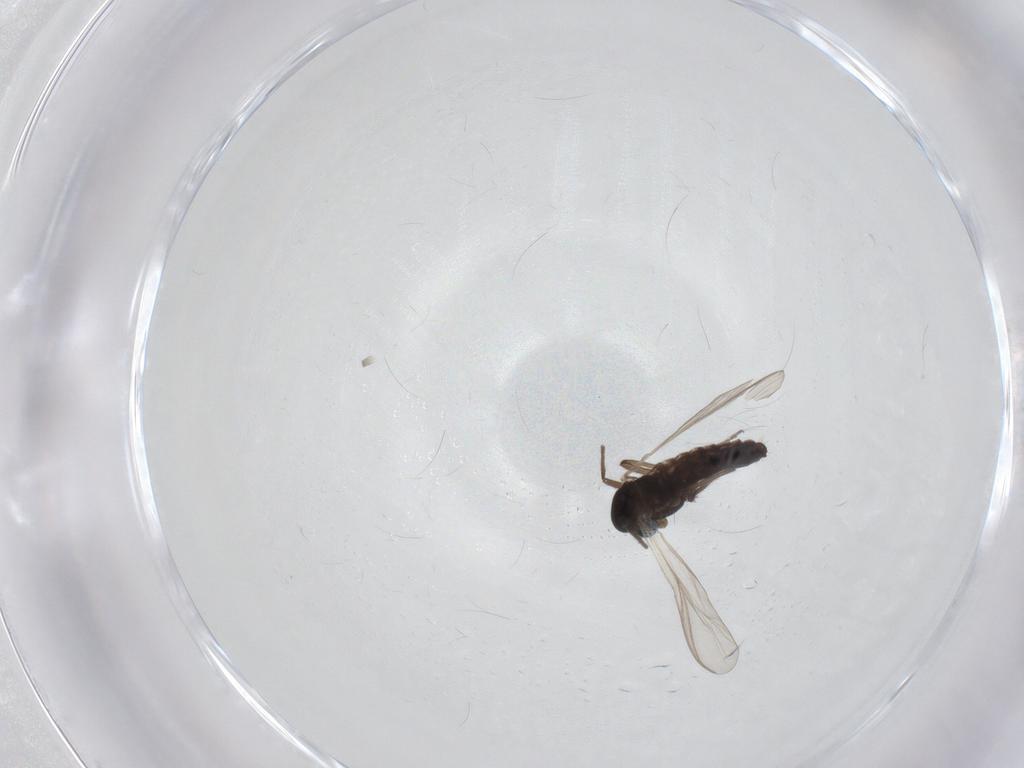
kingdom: Animalia
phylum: Arthropoda
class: Insecta
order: Diptera
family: Chironomidae
